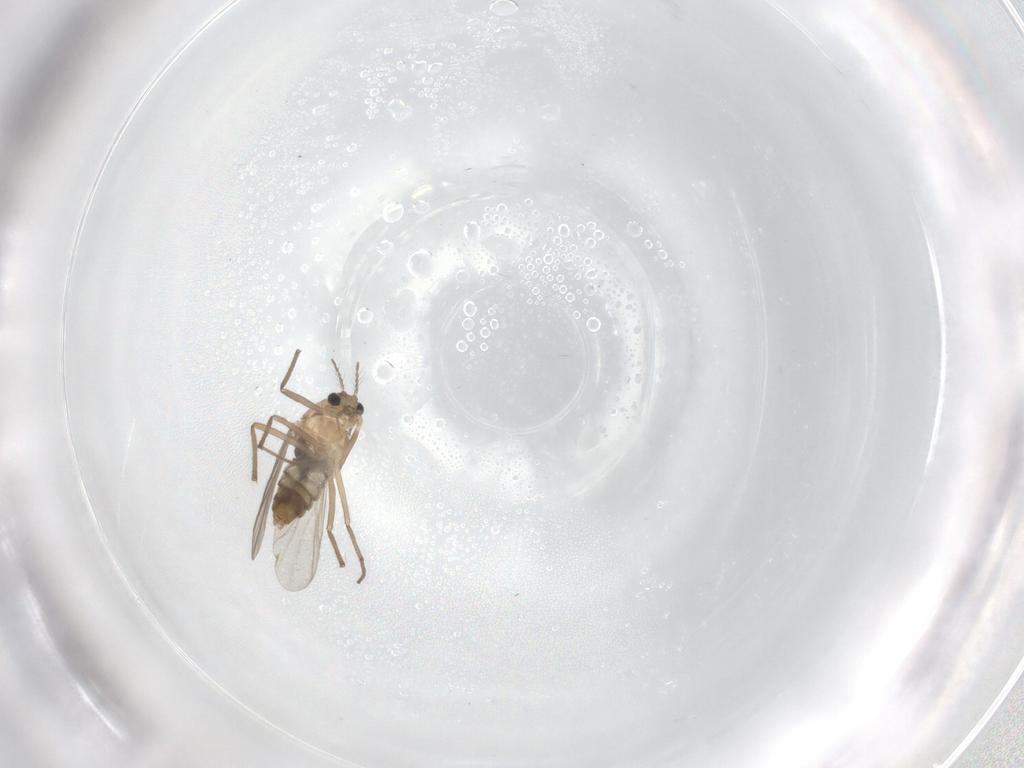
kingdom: Animalia
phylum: Arthropoda
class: Insecta
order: Diptera
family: Chironomidae
